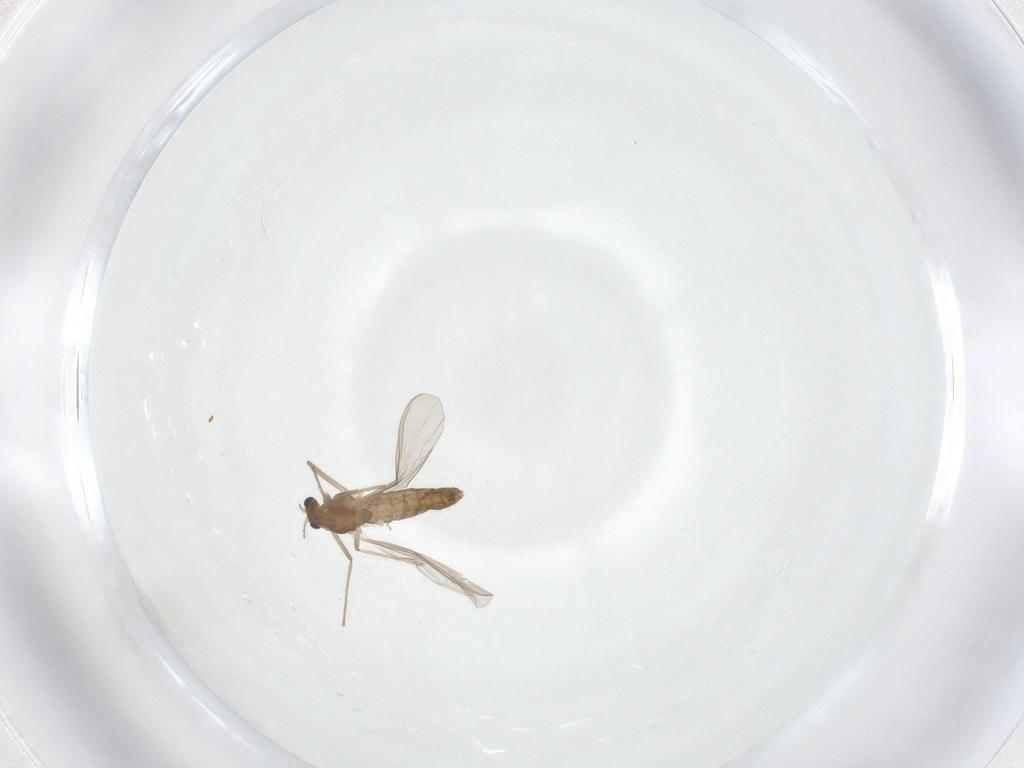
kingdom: Animalia
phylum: Arthropoda
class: Insecta
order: Diptera
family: Chironomidae
